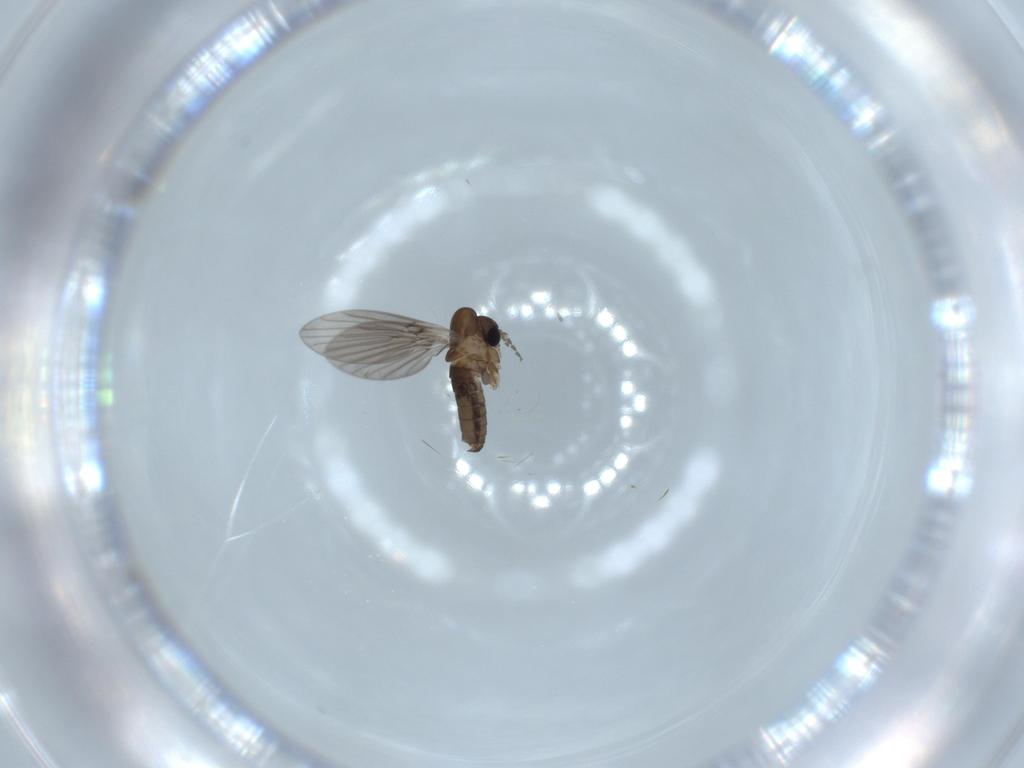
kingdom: Animalia
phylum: Arthropoda
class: Insecta
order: Diptera
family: Psychodidae
